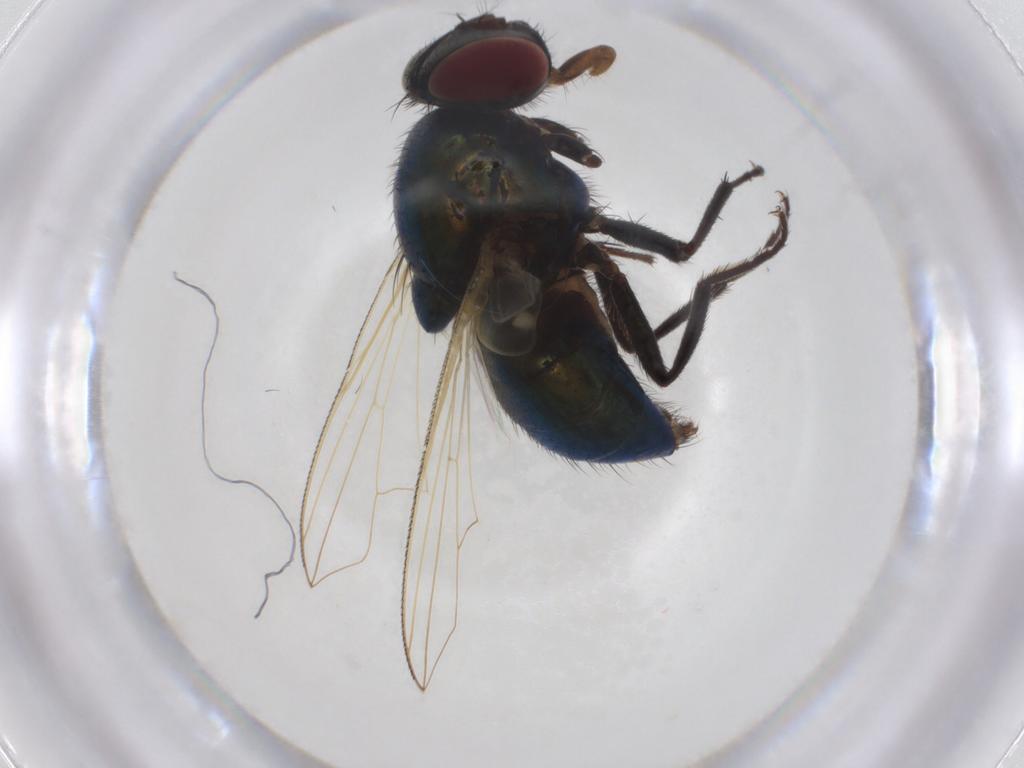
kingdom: Animalia
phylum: Arthropoda
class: Insecta
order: Diptera
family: Muscidae
